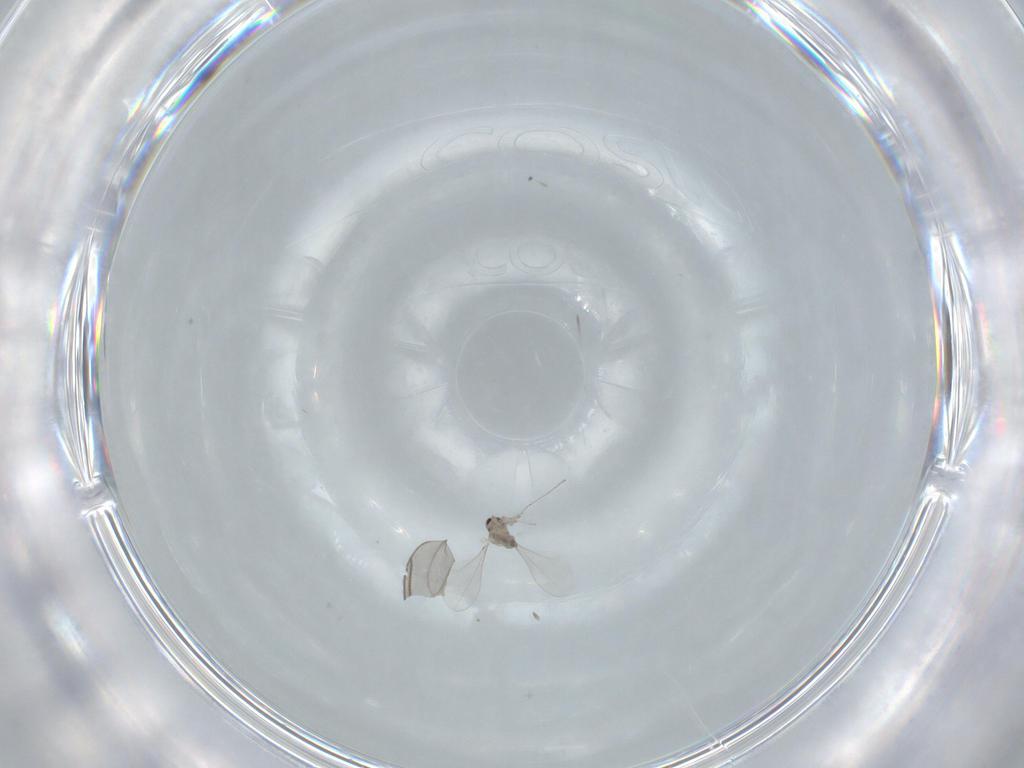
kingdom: Animalia
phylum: Arthropoda
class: Insecta
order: Diptera
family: Cecidomyiidae
